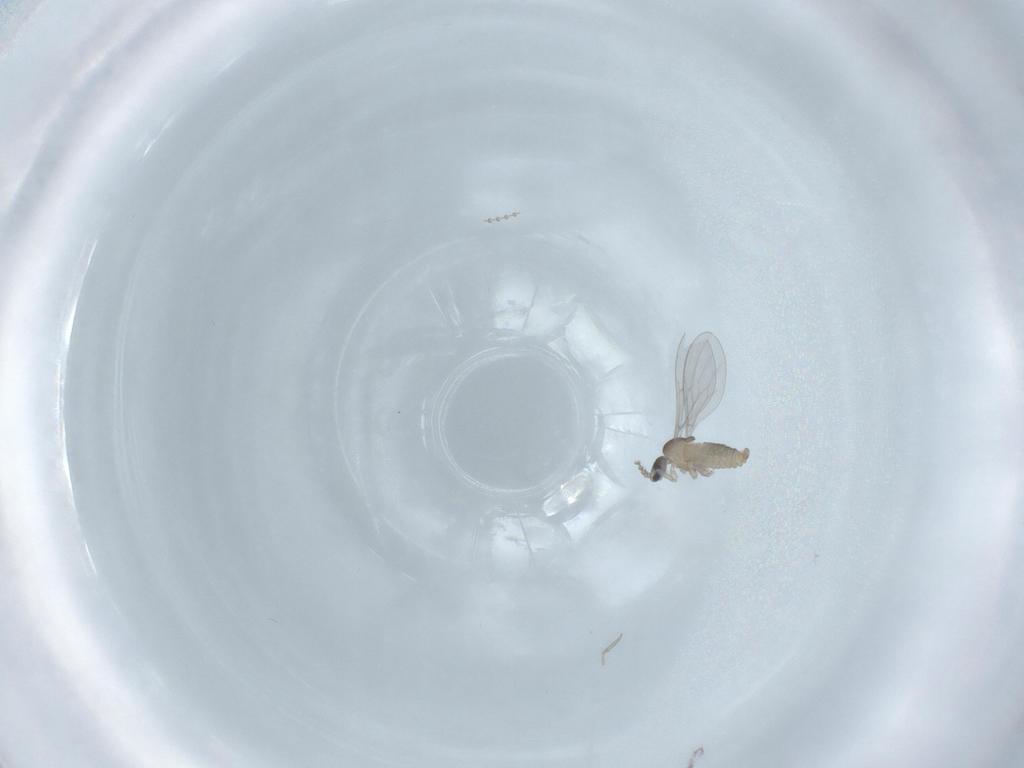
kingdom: Animalia
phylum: Arthropoda
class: Insecta
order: Diptera
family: Cecidomyiidae
